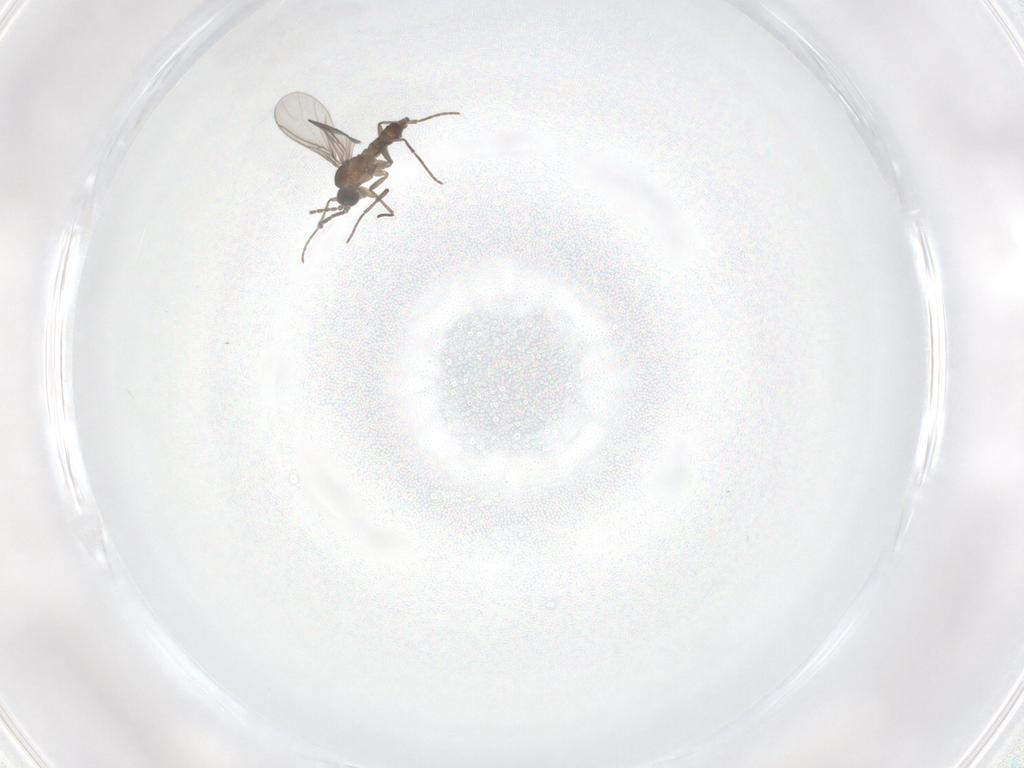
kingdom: Animalia
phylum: Arthropoda
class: Insecta
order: Diptera
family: Sciaridae
